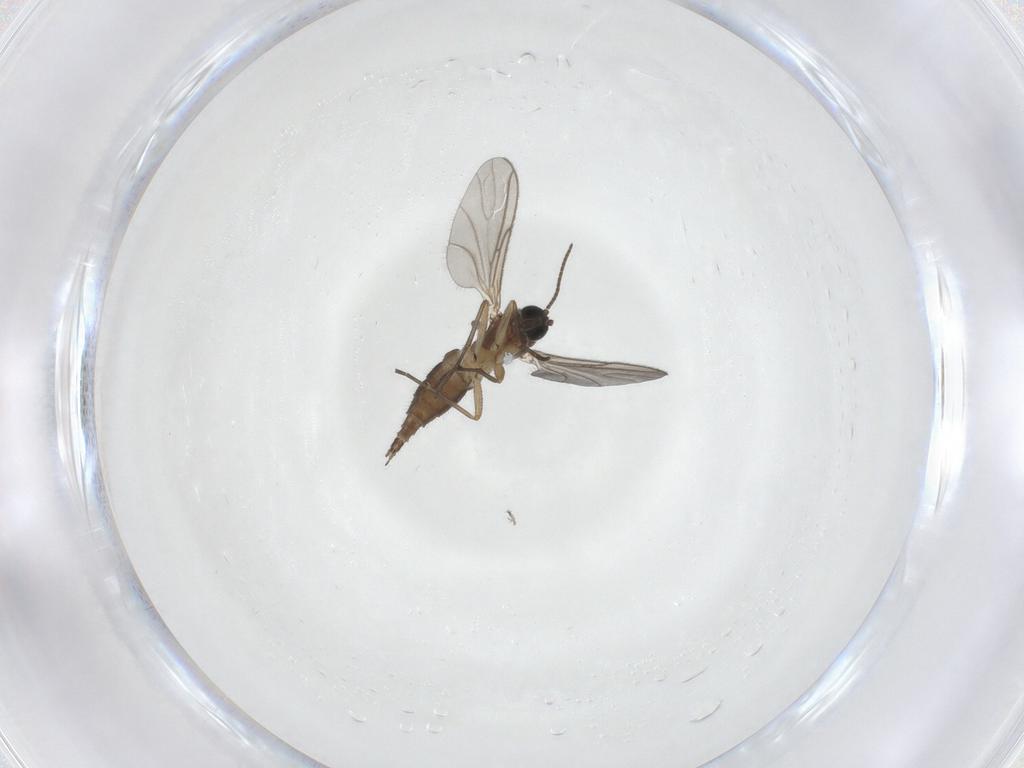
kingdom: Animalia
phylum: Arthropoda
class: Insecta
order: Diptera
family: Sciaridae
